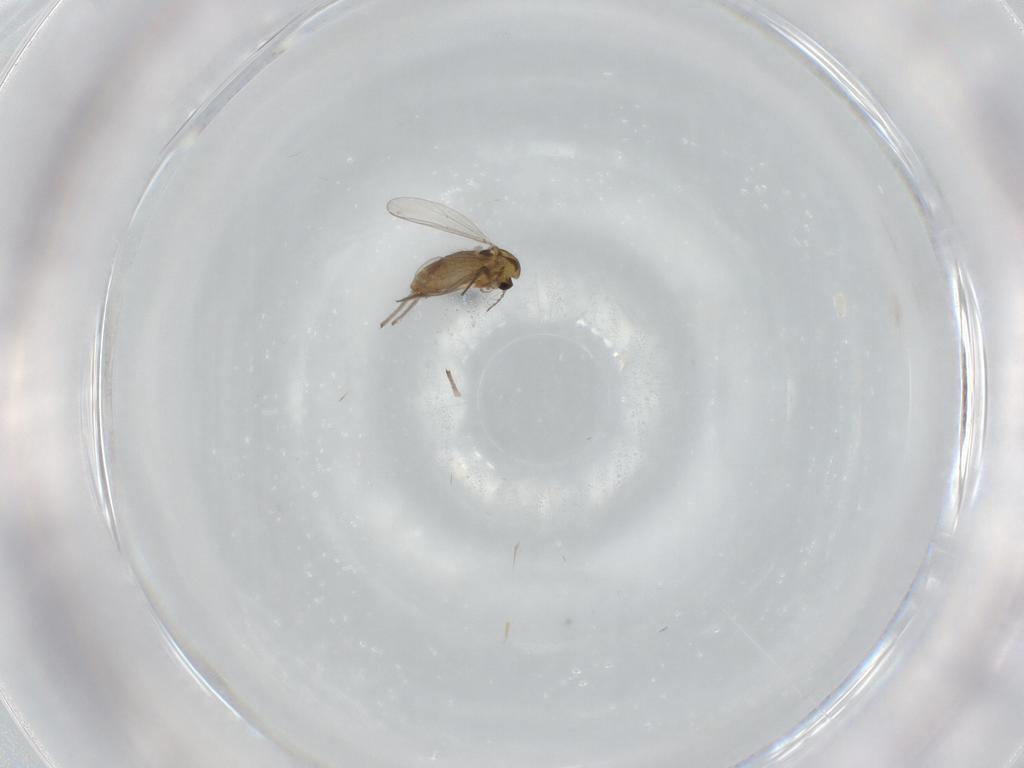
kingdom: Animalia
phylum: Arthropoda
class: Insecta
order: Diptera
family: Chironomidae
